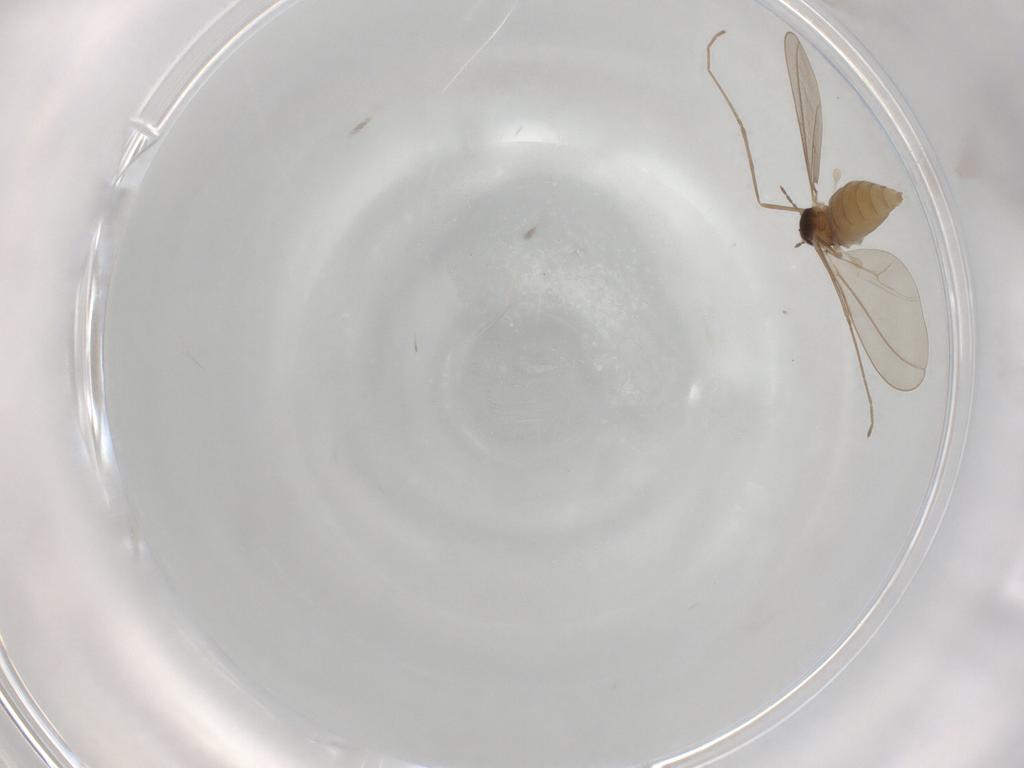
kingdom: Animalia
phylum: Arthropoda
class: Insecta
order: Diptera
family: Cecidomyiidae
